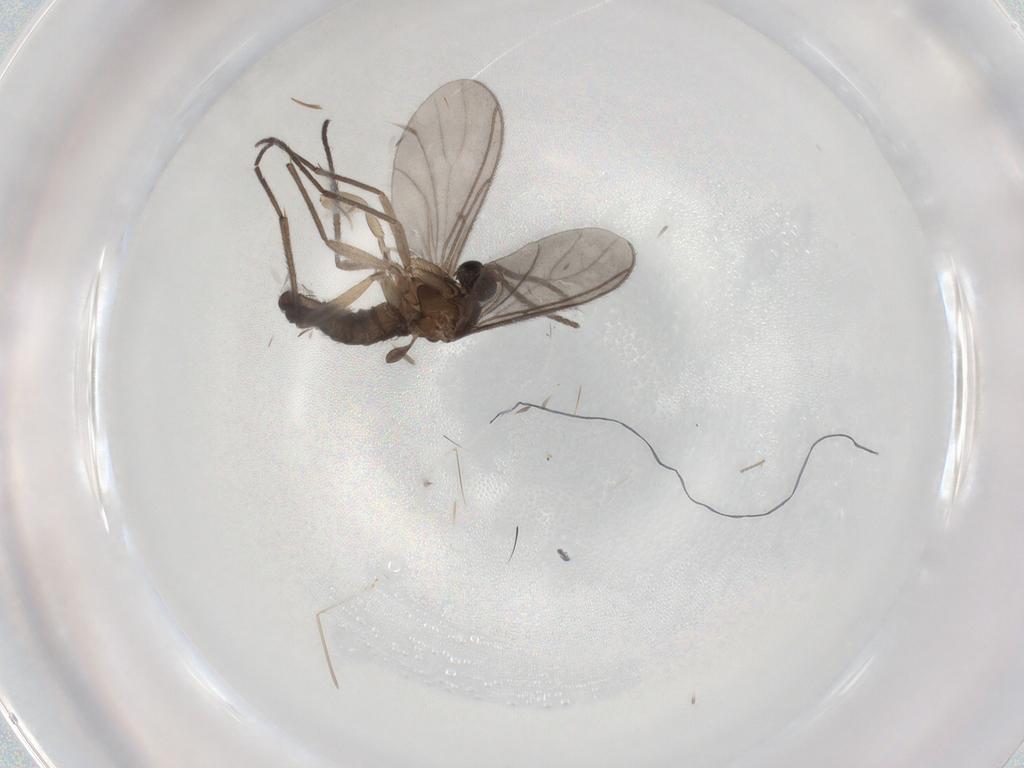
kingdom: Animalia
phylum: Arthropoda
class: Insecta
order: Diptera
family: Sciaridae
